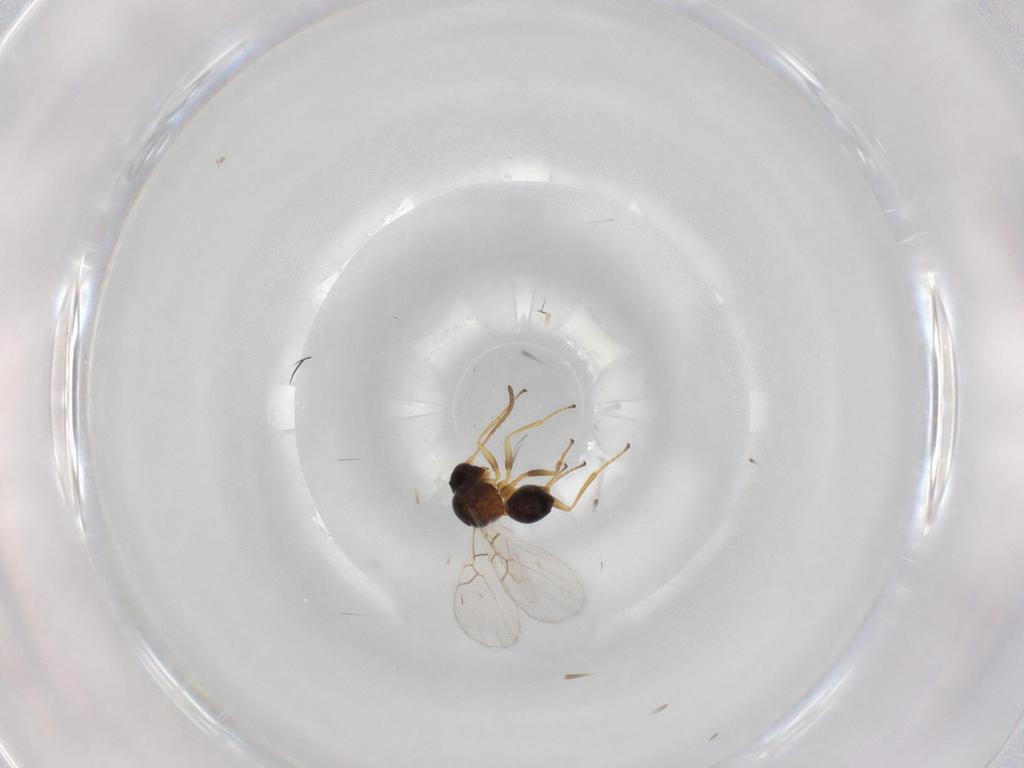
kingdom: Animalia
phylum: Arthropoda
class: Insecta
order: Hymenoptera
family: Figitidae
